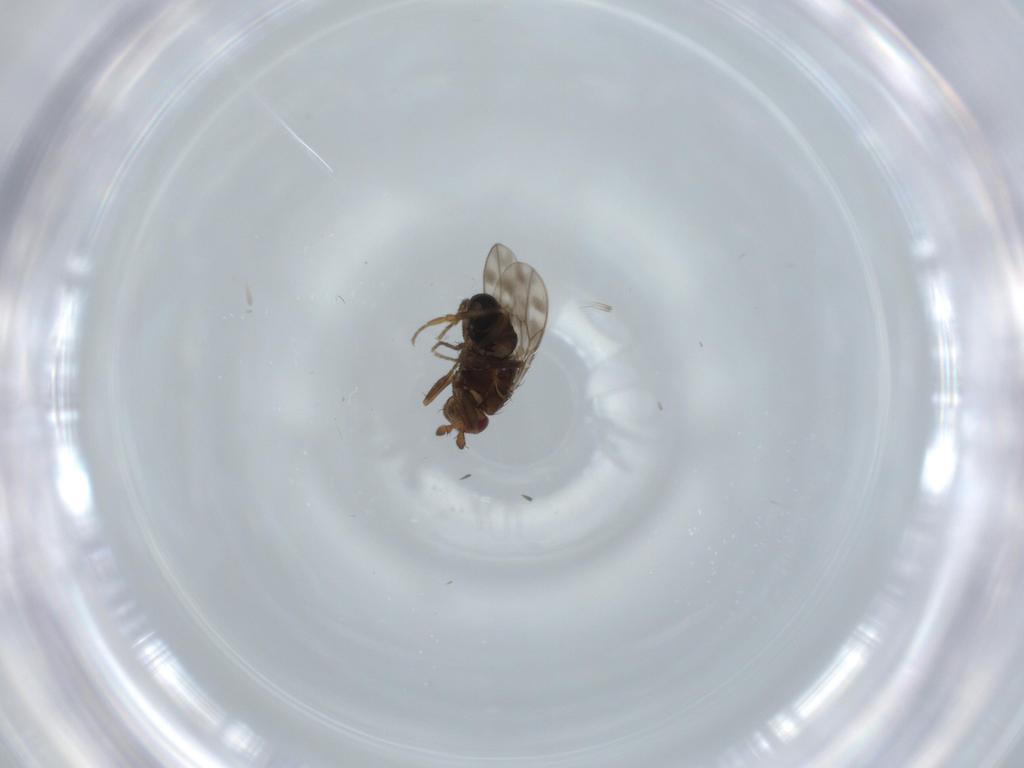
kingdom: Animalia
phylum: Arthropoda
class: Insecta
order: Diptera
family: Sphaeroceridae
